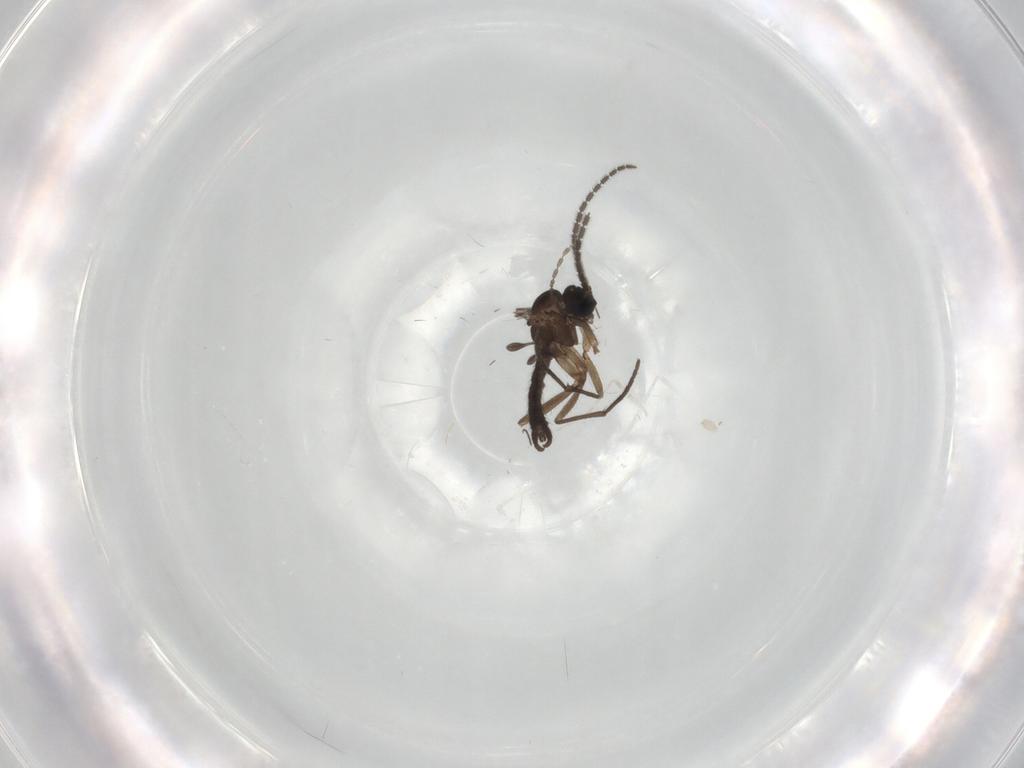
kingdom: Animalia
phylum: Arthropoda
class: Insecta
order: Diptera
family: Sciaridae
